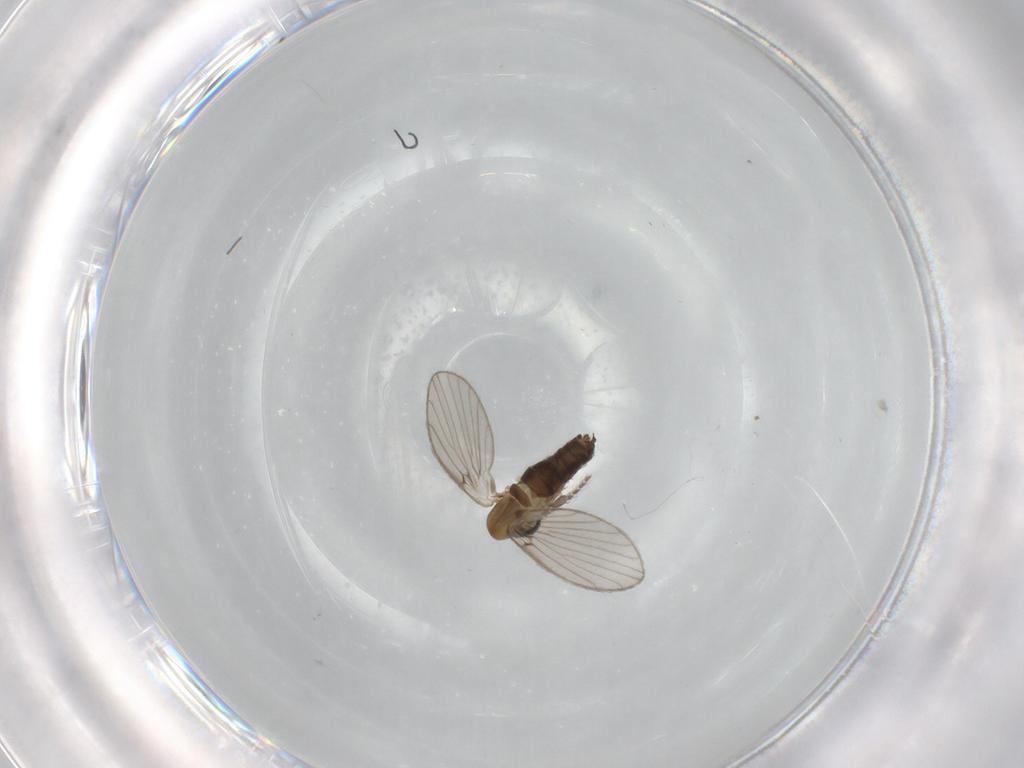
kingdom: Animalia
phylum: Arthropoda
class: Insecta
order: Diptera
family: Psychodidae
